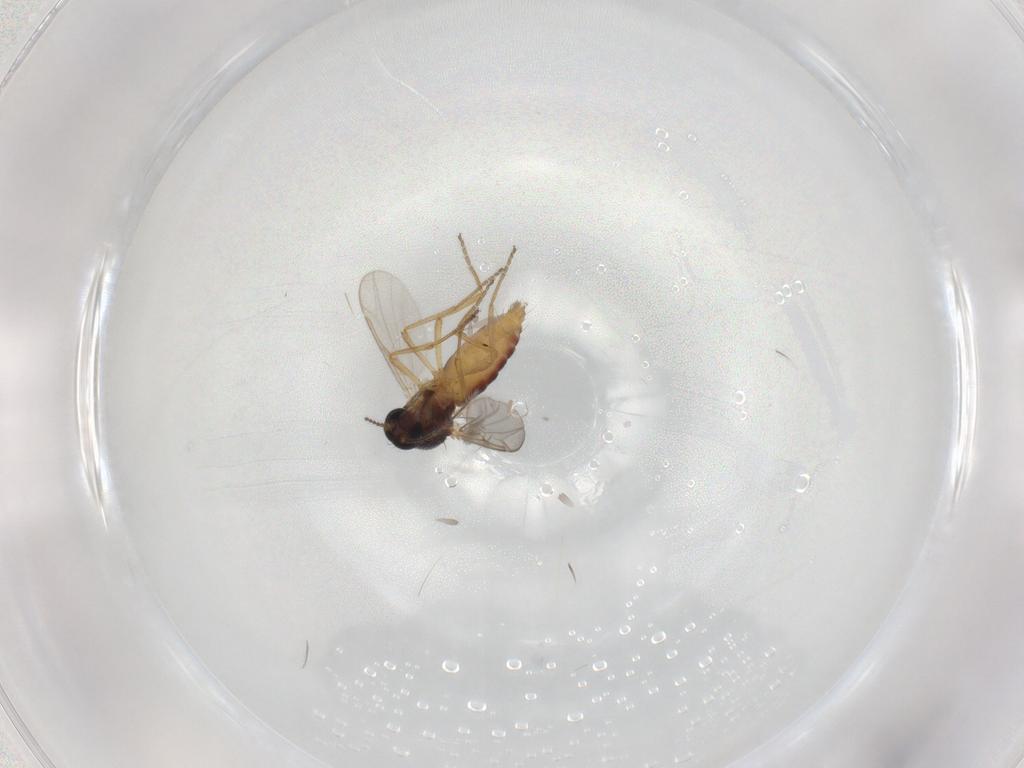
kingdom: Animalia
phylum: Arthropoda
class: Insecta
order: Diptera
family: Ceratopogonidae
